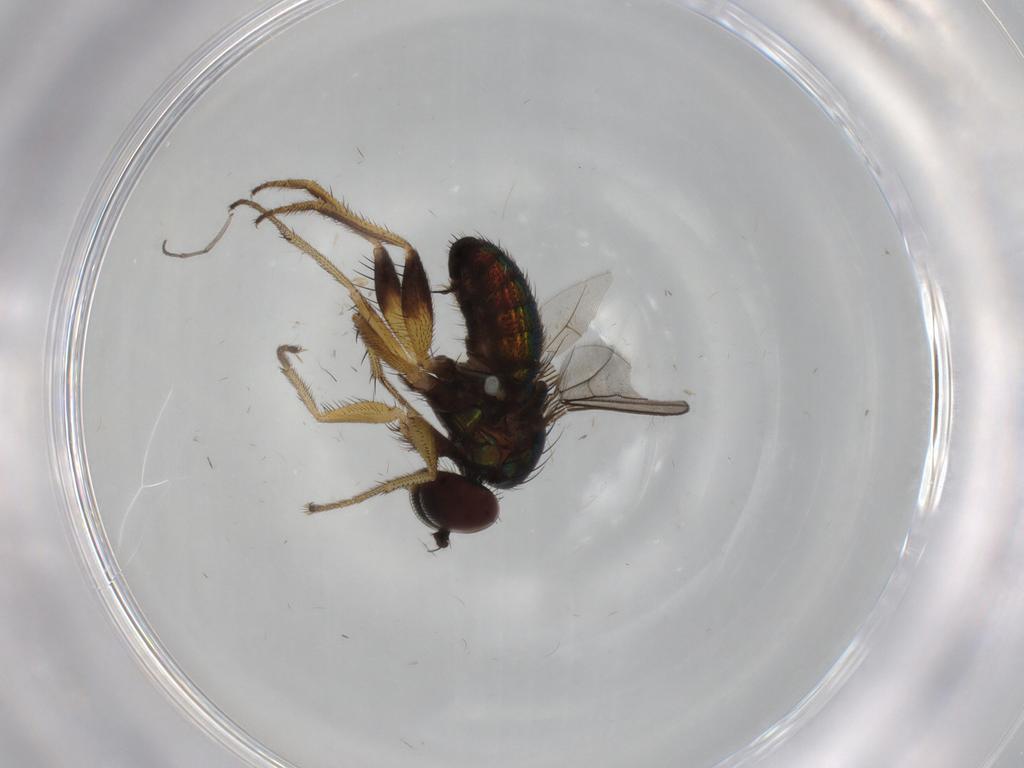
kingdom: Animalia
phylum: Arthropoda
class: Insecta
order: Diptera
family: Dolichopodidae
